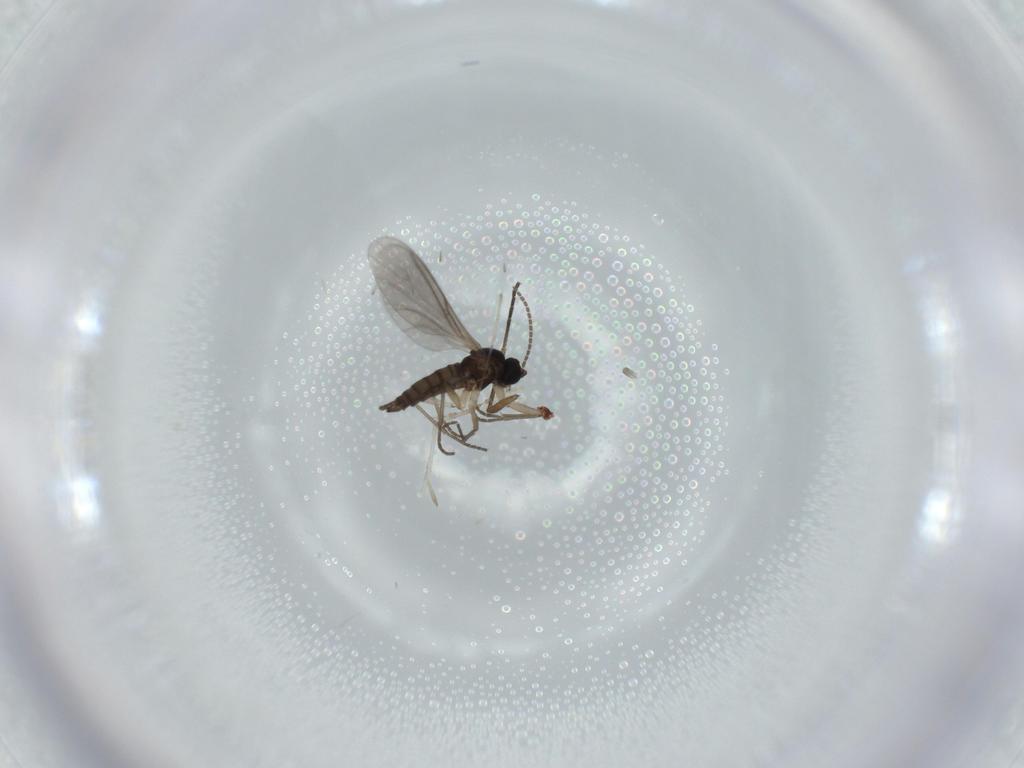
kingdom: Animalia
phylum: Arthropoda
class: Insecta
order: Diptera
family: Sciaridae
